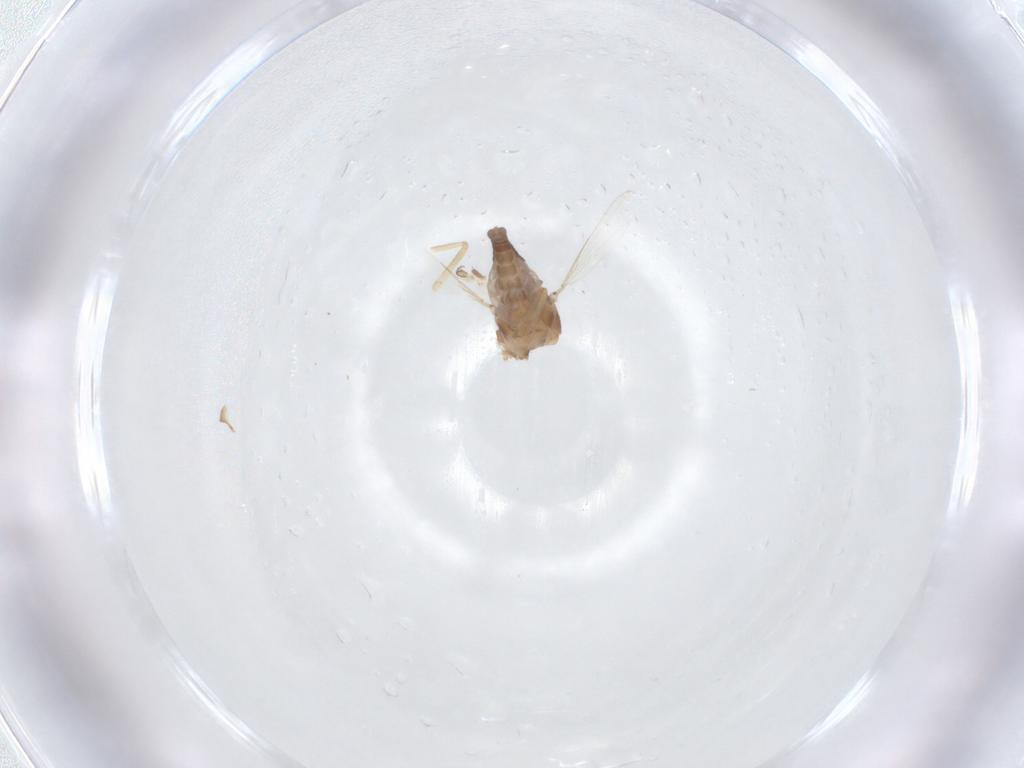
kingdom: Animalia
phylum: Arthropoda
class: Insecta
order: Diptera
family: Ceratopogonidae
